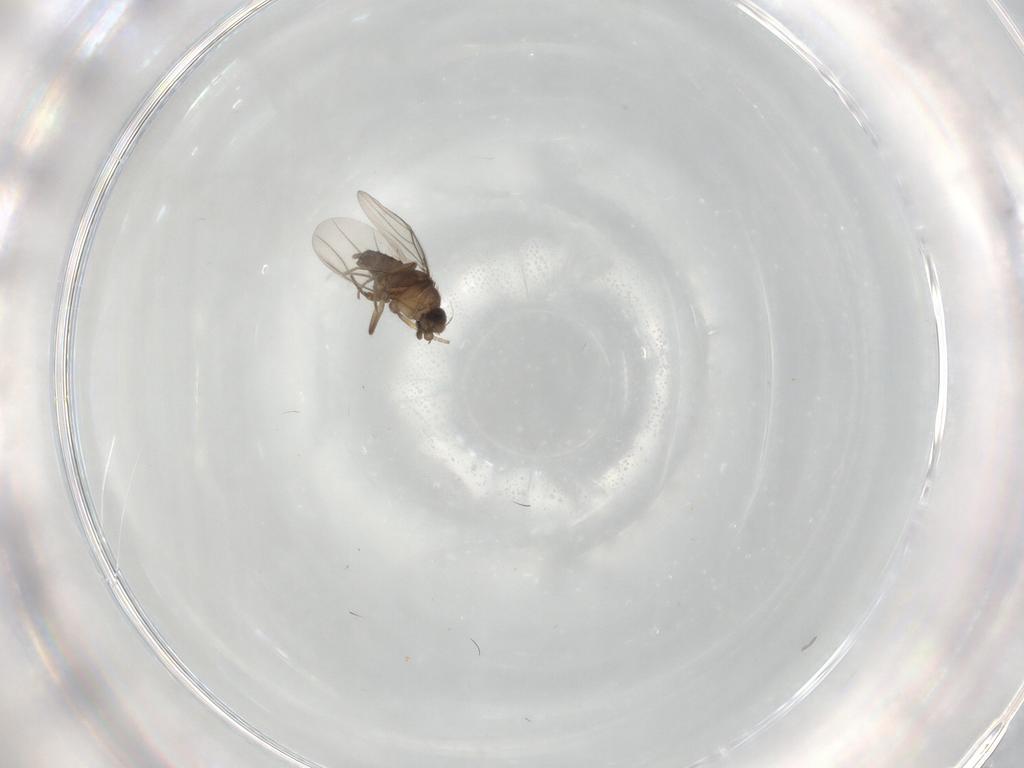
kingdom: Animalia
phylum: Arthropoda
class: Insecta
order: Diptera
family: Phoridae
